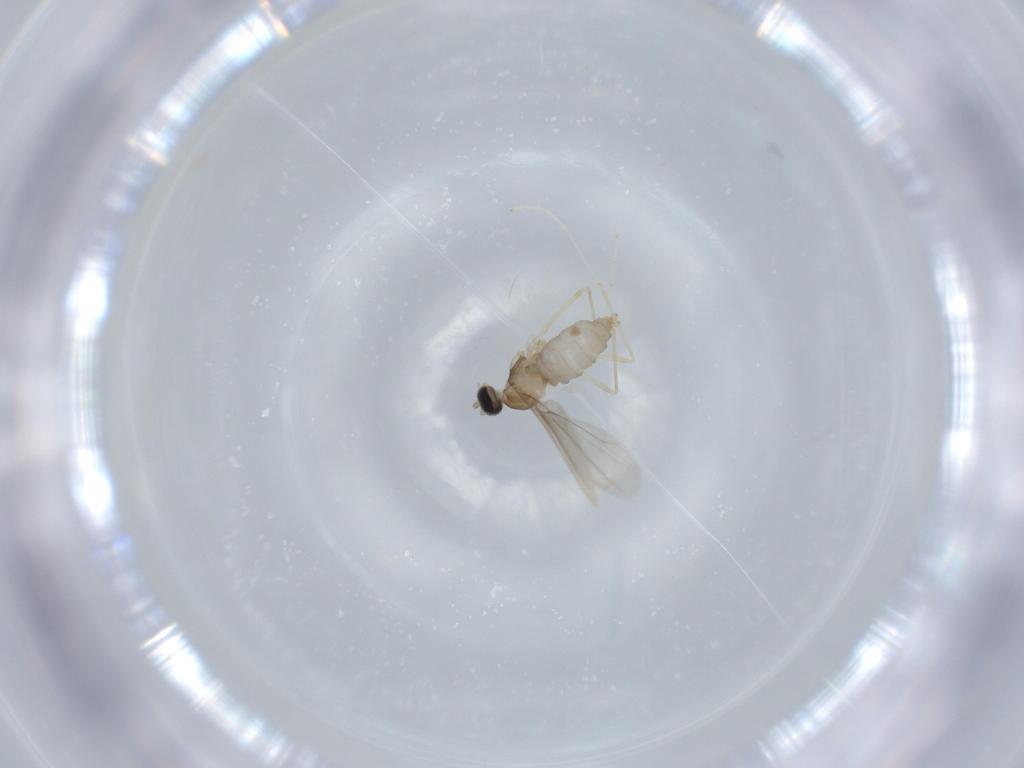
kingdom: Animalia
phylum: Arthropoda
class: Insecta
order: Diptera
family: Cecidomyiidae
